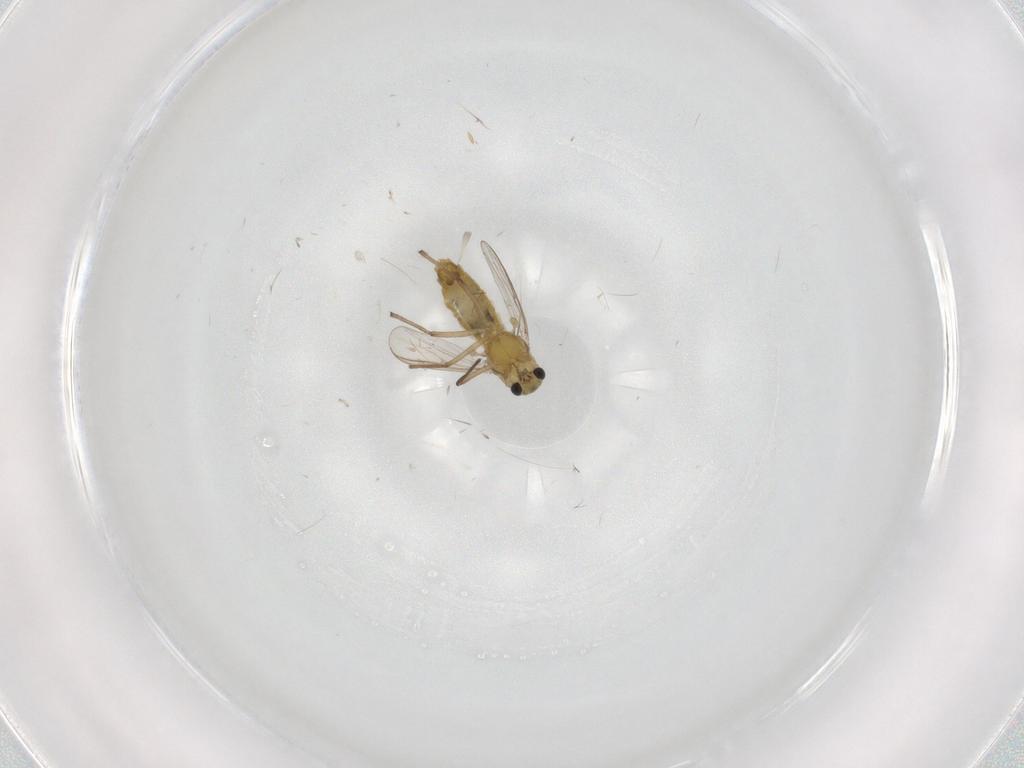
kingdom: Animalia
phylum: Arthropoda
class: Insecta
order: Diptera
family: Chironomidae
